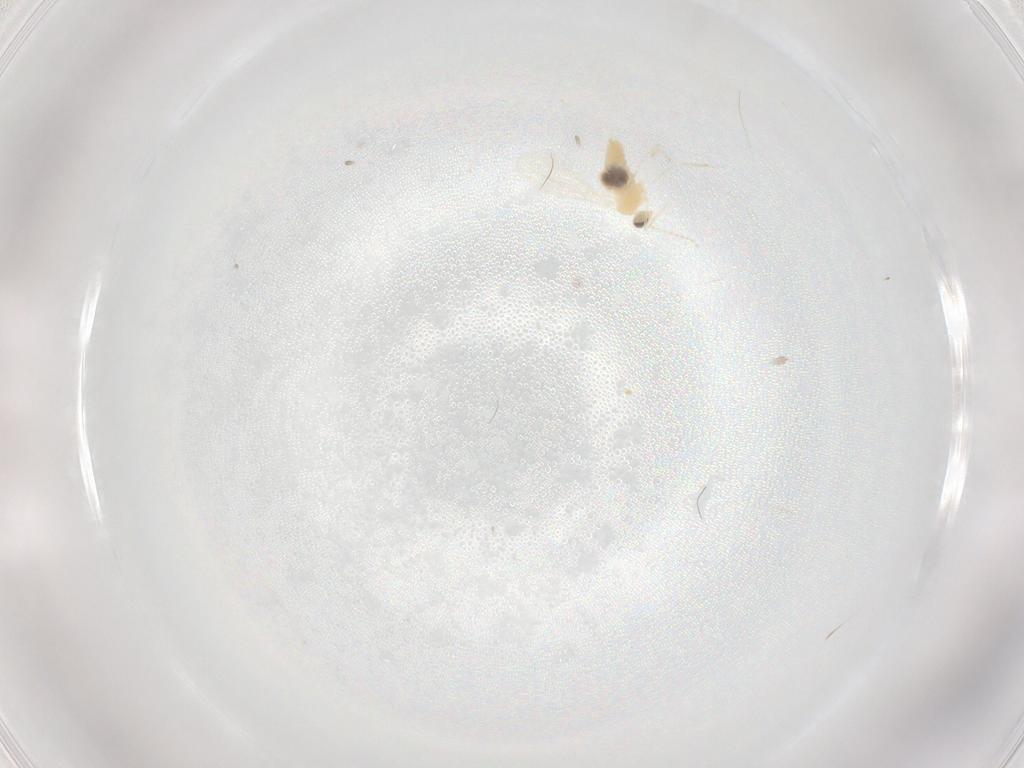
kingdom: Animalia
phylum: Arthropoda
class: Insecta
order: Diptera
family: Cecidomyiidae
